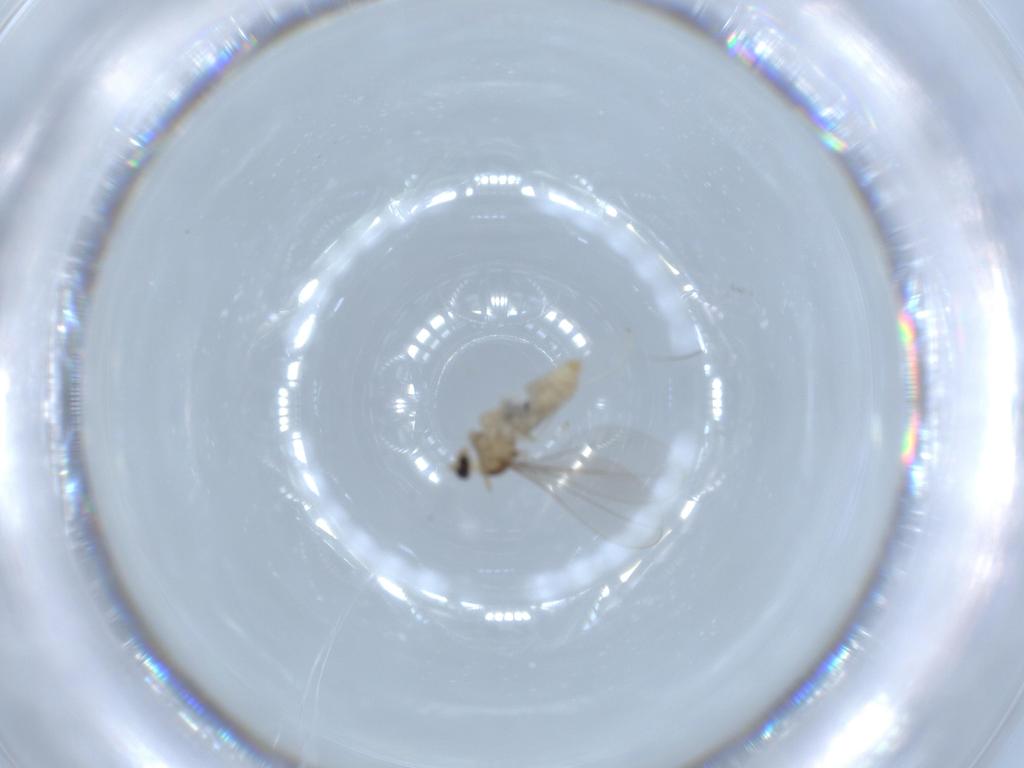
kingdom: Animalia
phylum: Arthropoda
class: Insecta
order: Diptera
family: Cecidomyiidae
